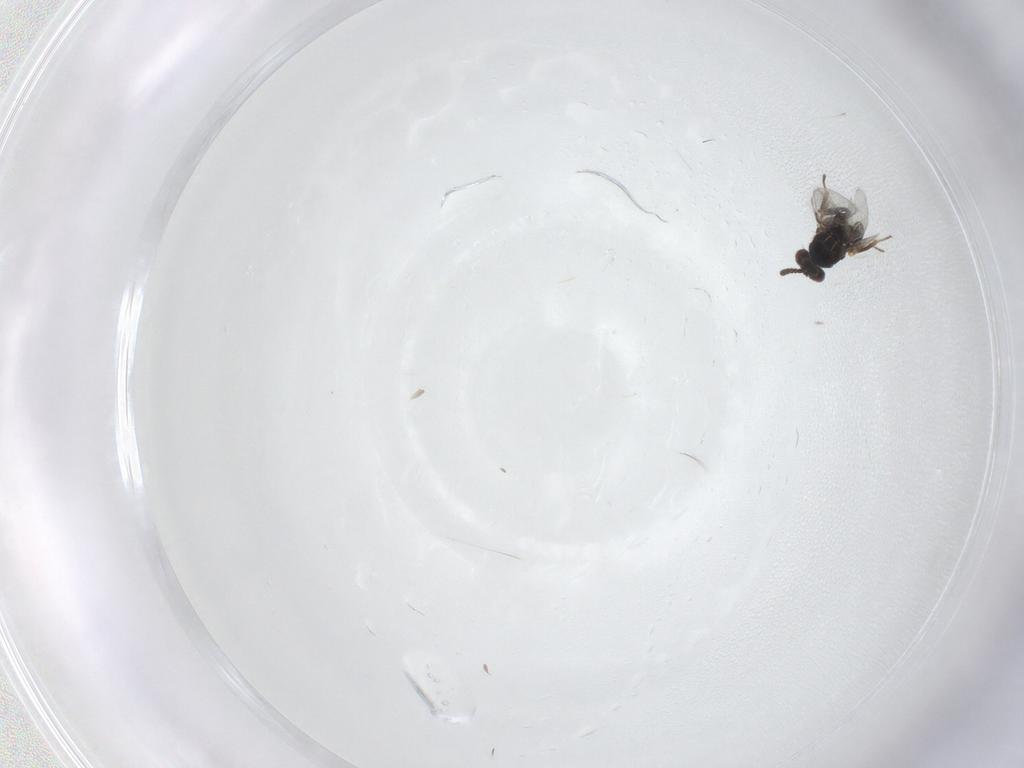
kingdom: Animalia
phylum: Arthropoda
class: Insecta
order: Hymenoptera
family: Eulophidae
